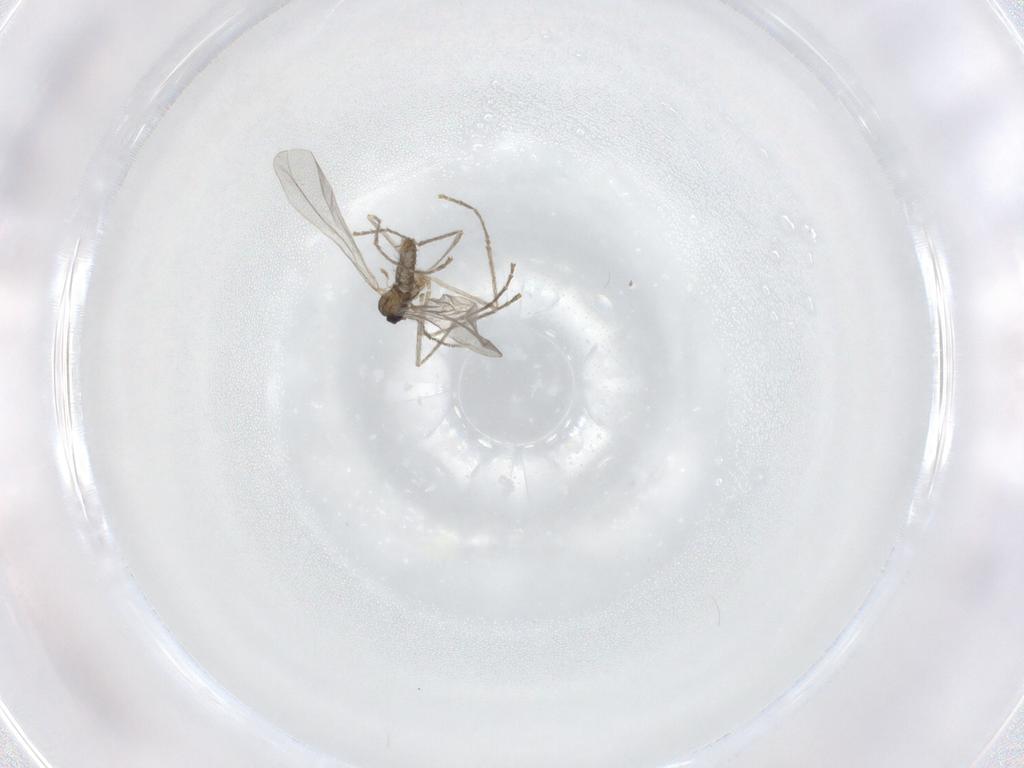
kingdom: Animalia
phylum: Arthropoda
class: Insecta
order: Diptera
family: Cecidomyiidae
